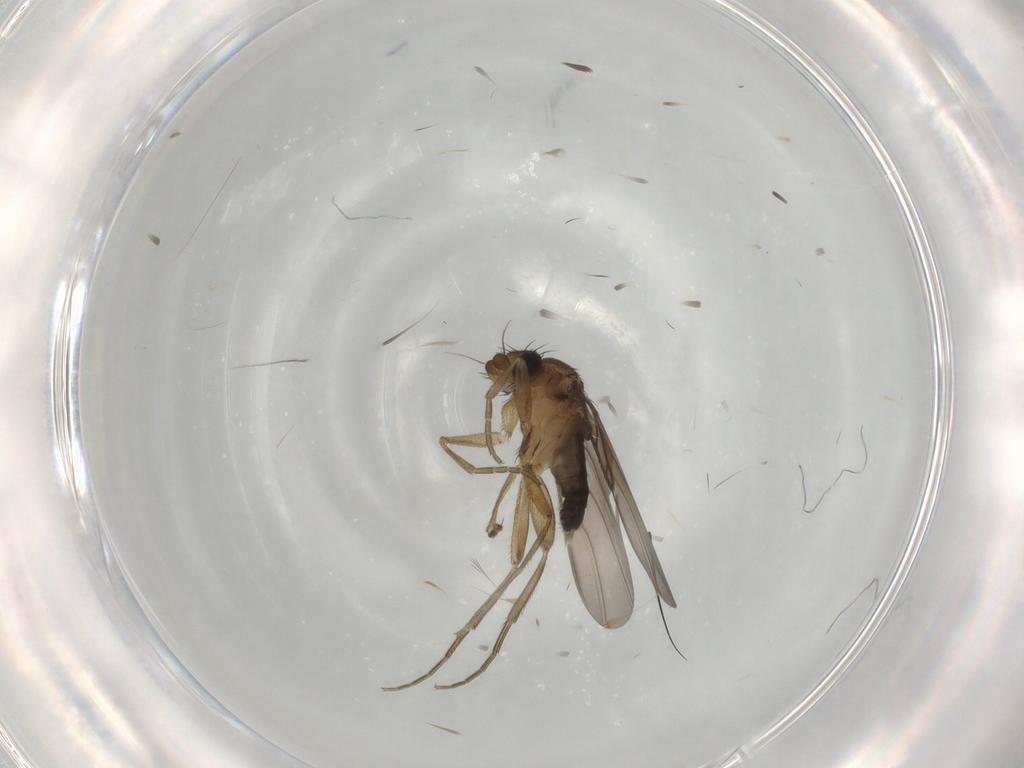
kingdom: Animalia
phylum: Arthropoda
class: Insecta
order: Diptera
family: Phoridae
